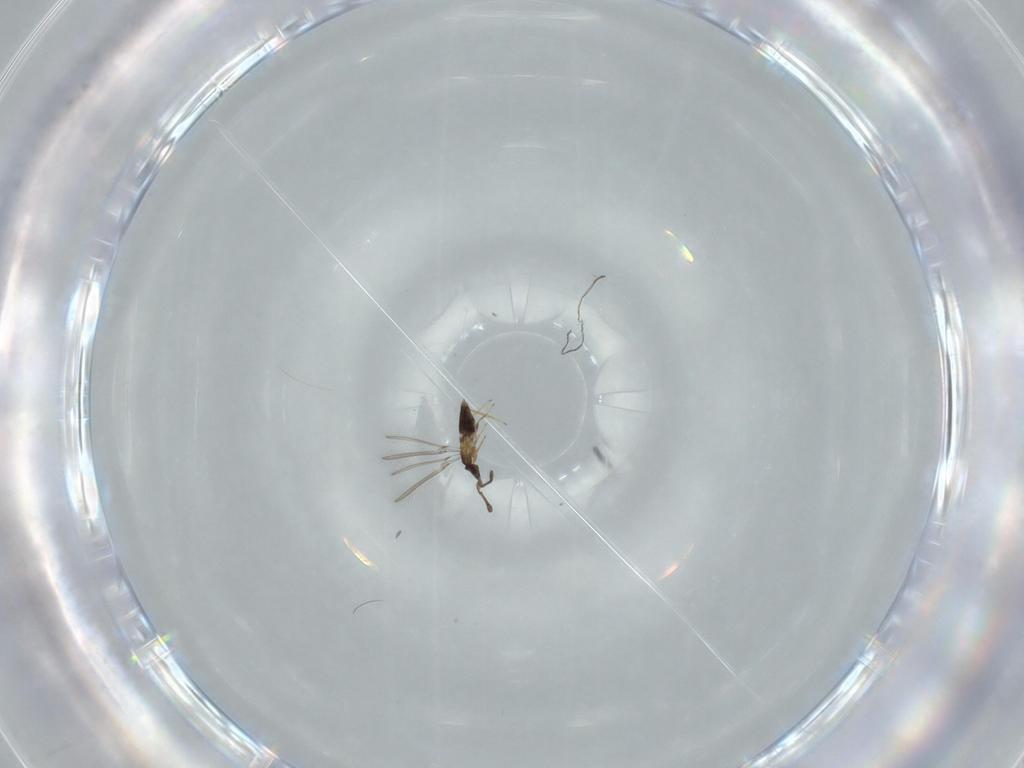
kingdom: Animalia
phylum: Arthropoda
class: Insecta
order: Hymenoptera
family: Mymaridae
